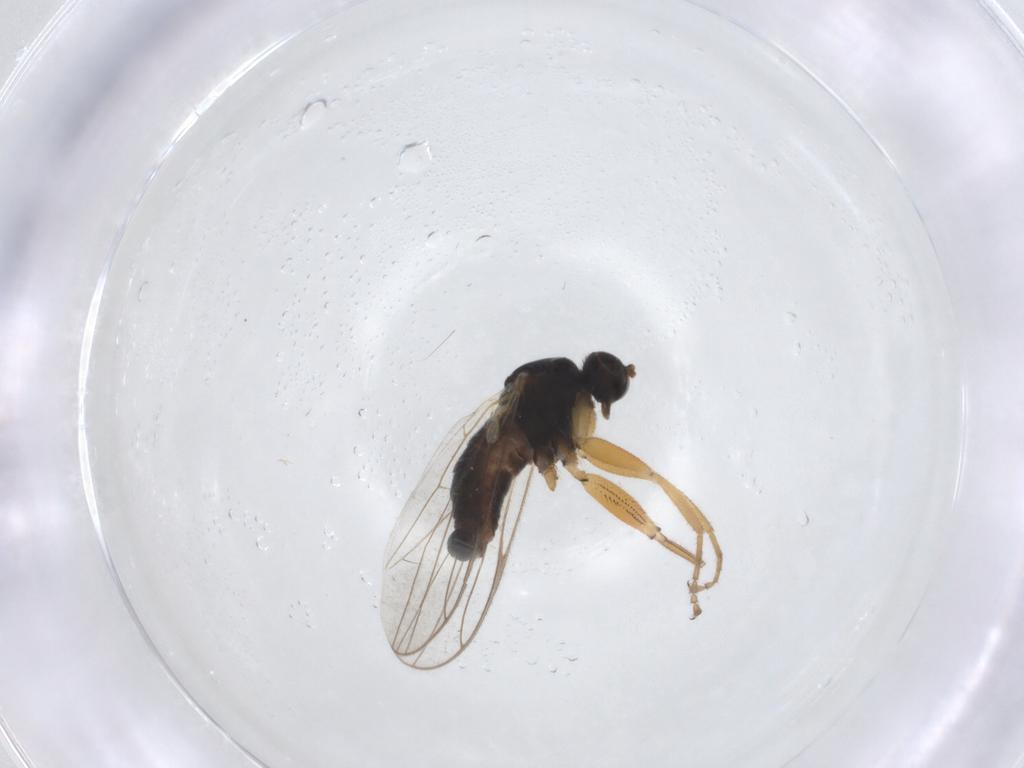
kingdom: Animalia
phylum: Arthropoda
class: Insecta
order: Diptera
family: Hybotidae
